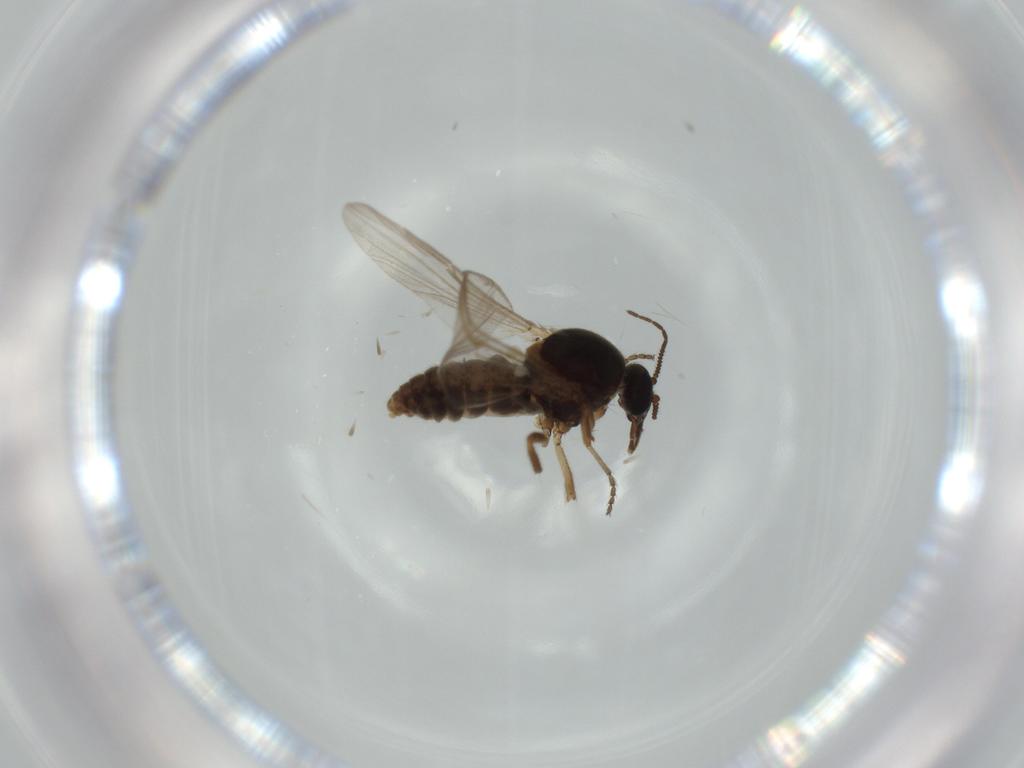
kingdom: Animalia
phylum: Arthropoda
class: Insecta
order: Diptera
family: Ceratopogonidae
